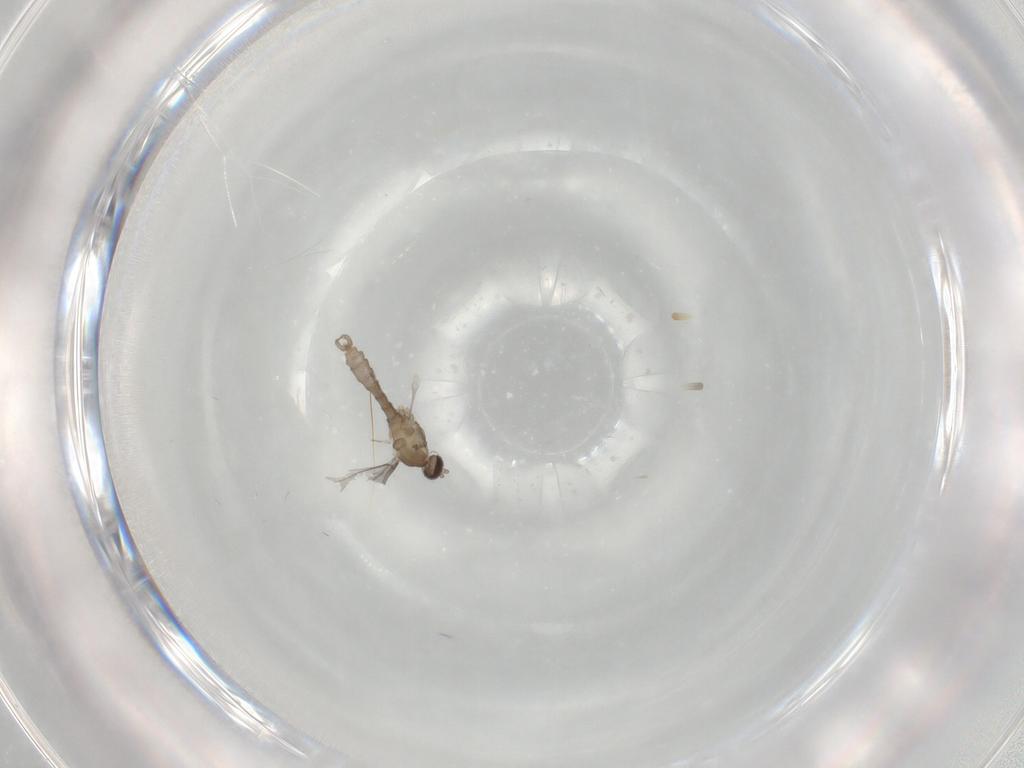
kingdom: Animalia
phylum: Arthropoda
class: Insecta
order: Diptera
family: Cecidomyiidae
